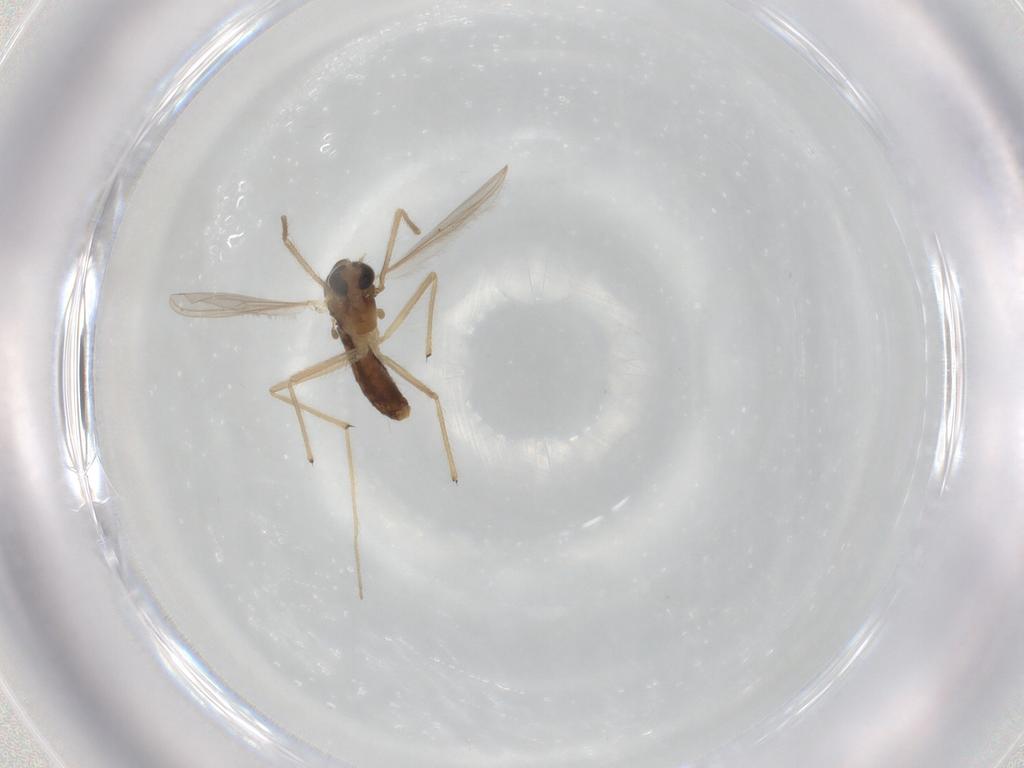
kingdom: Animalia
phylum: Arthropoda
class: Insecta
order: Diptera
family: Chironomidae
